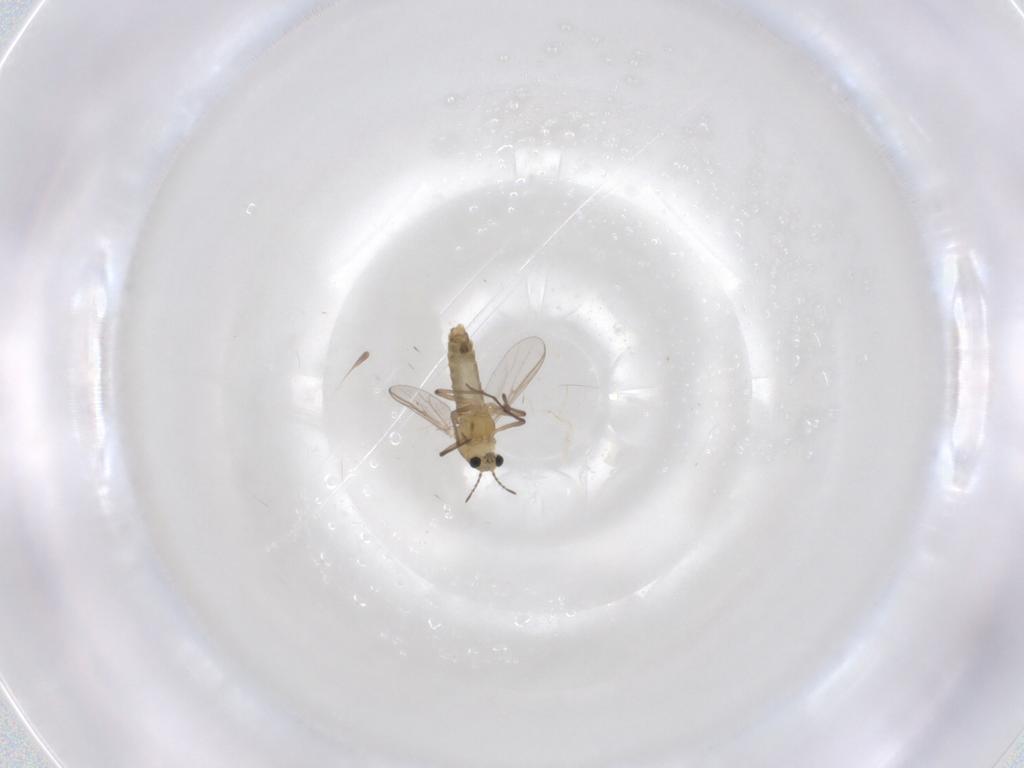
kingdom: Animalia
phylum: Arthropoda
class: Insecta
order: Diptera
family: Chironomidae
